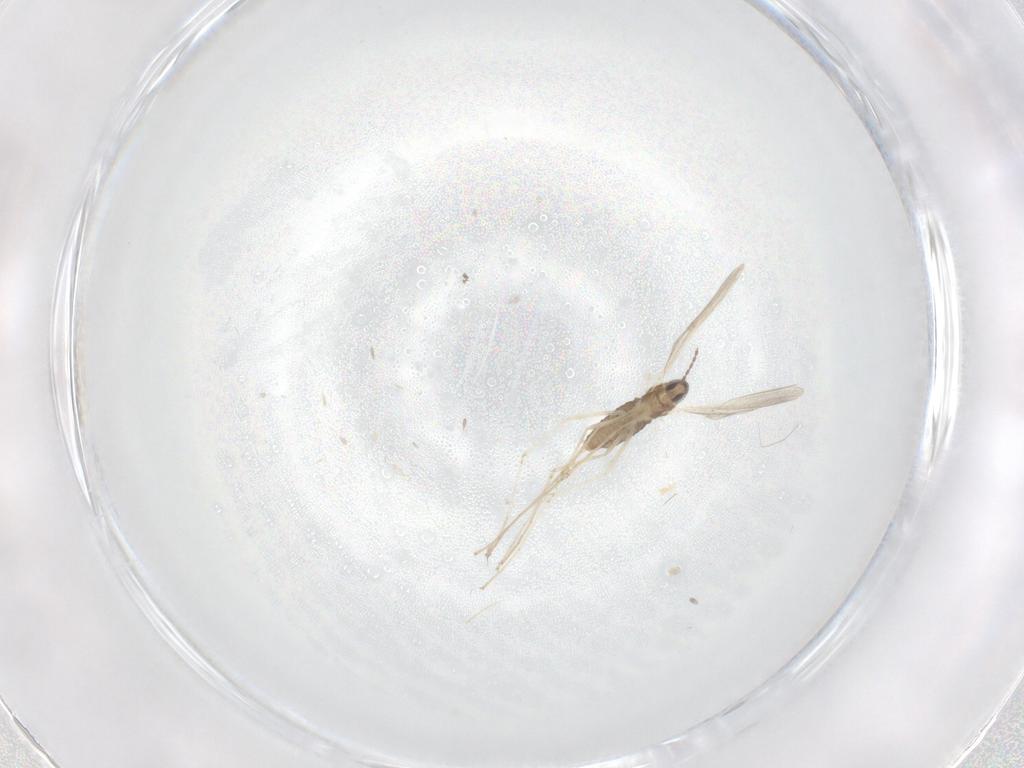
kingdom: Animalia
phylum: Arthropoda
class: Insecta
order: Diptera
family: Cecidomyiidae
